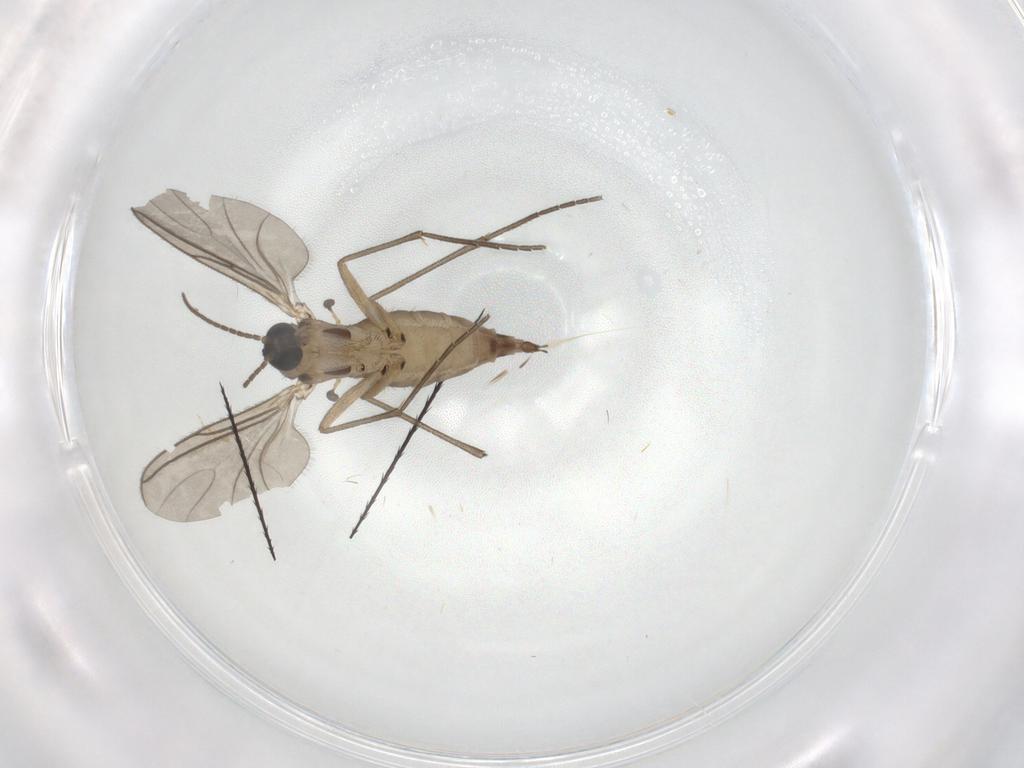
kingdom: Animalia
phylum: Arthropoda
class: Insecta
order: Diptera
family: Sciaridae
